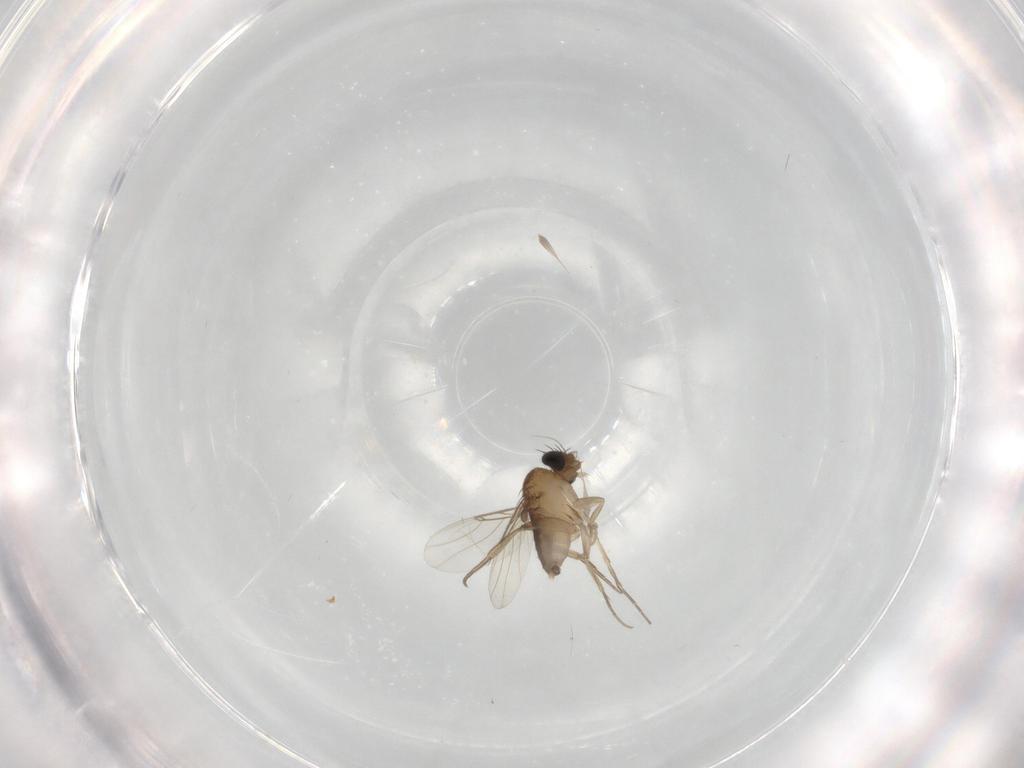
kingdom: Animalia
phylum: Arthropoda
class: Insecta
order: Diptera
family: Phoridae
